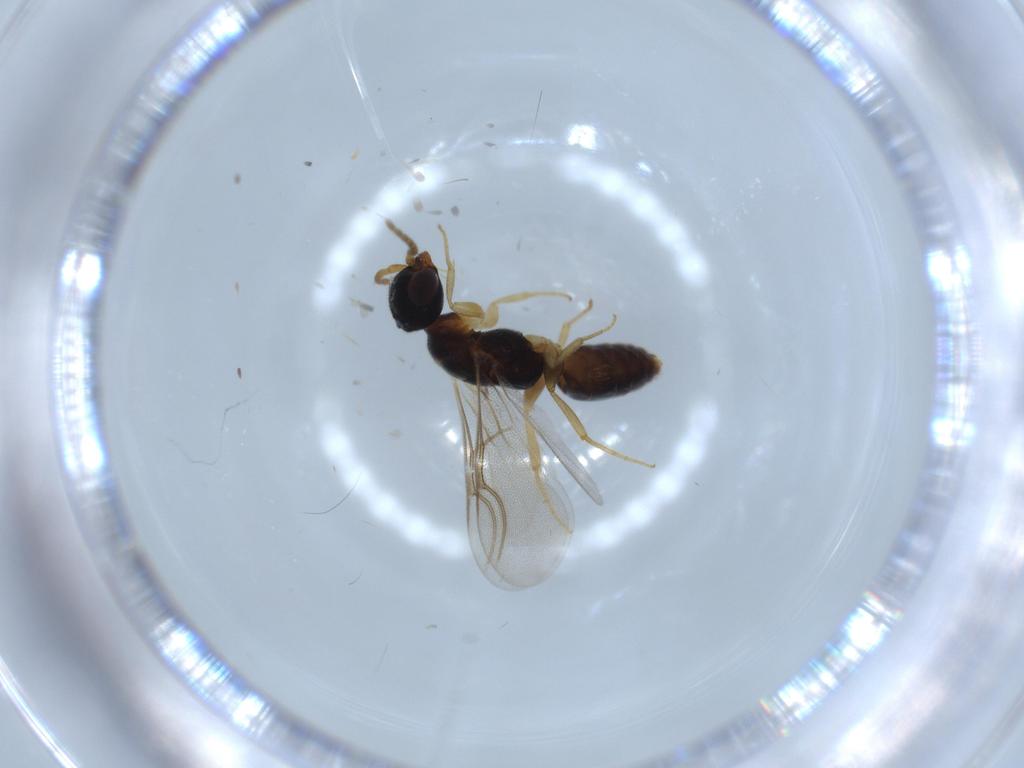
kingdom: Animalia
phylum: Arthropoda
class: Insecta
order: Hymenoptera
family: Bethylidae
